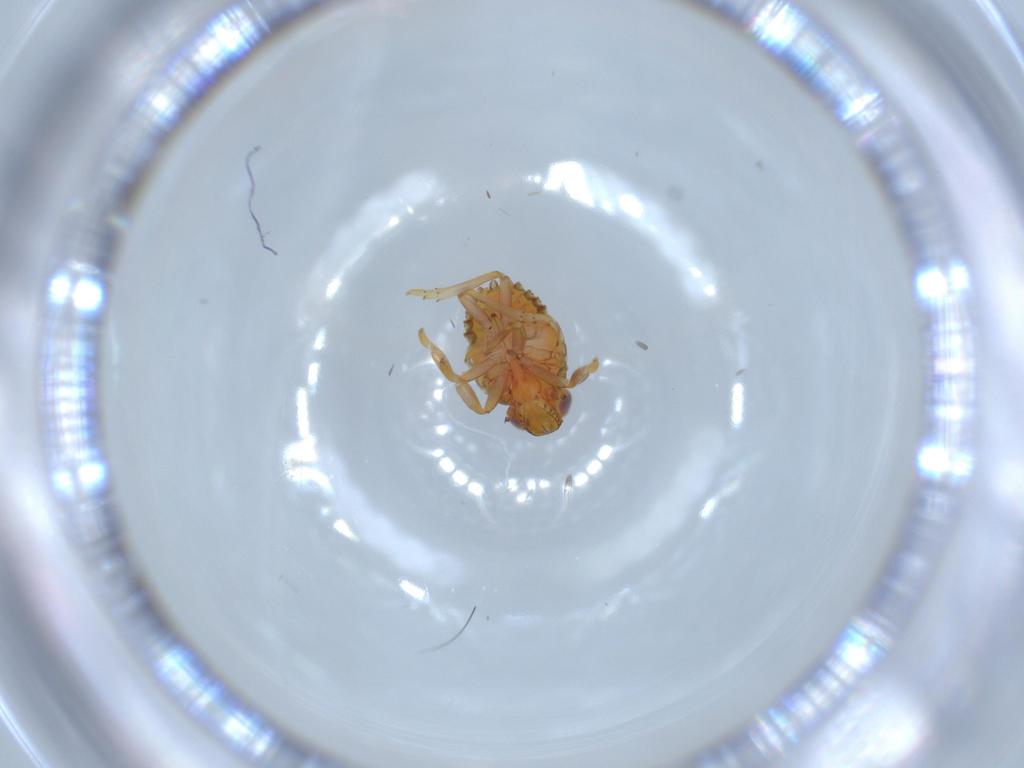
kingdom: Animalia
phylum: Arthropoda
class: Insecta
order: Hemiptera
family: Issidae
